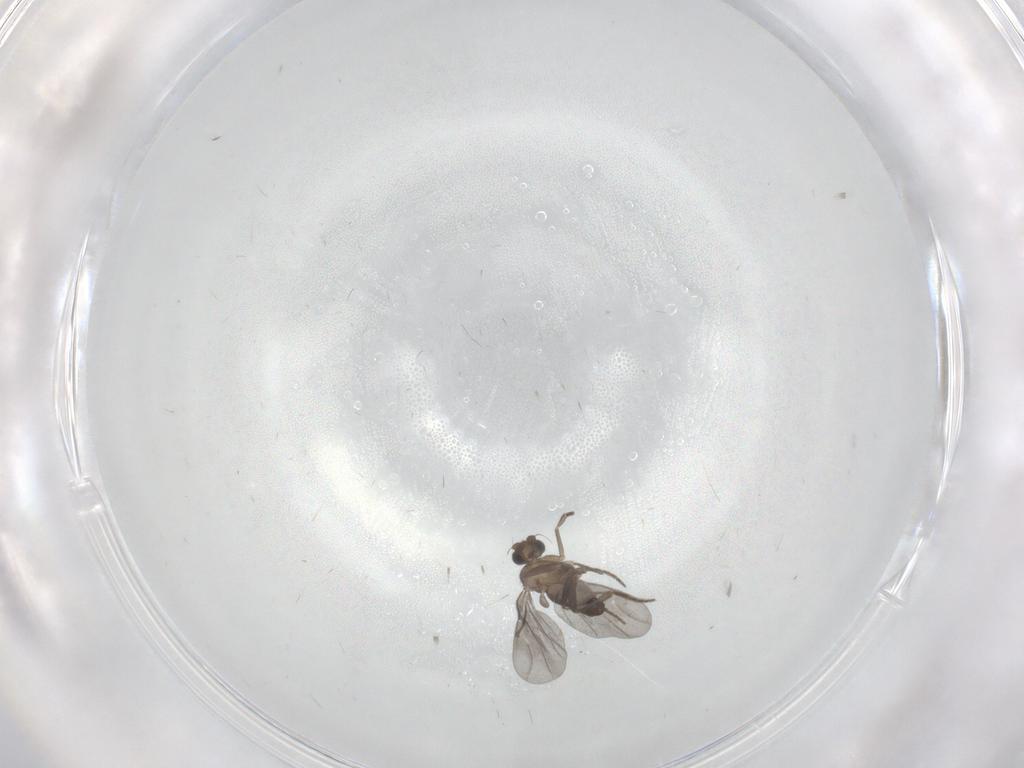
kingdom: Animalia
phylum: Arthropoda
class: Insecta
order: Diptera
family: Phoridae
